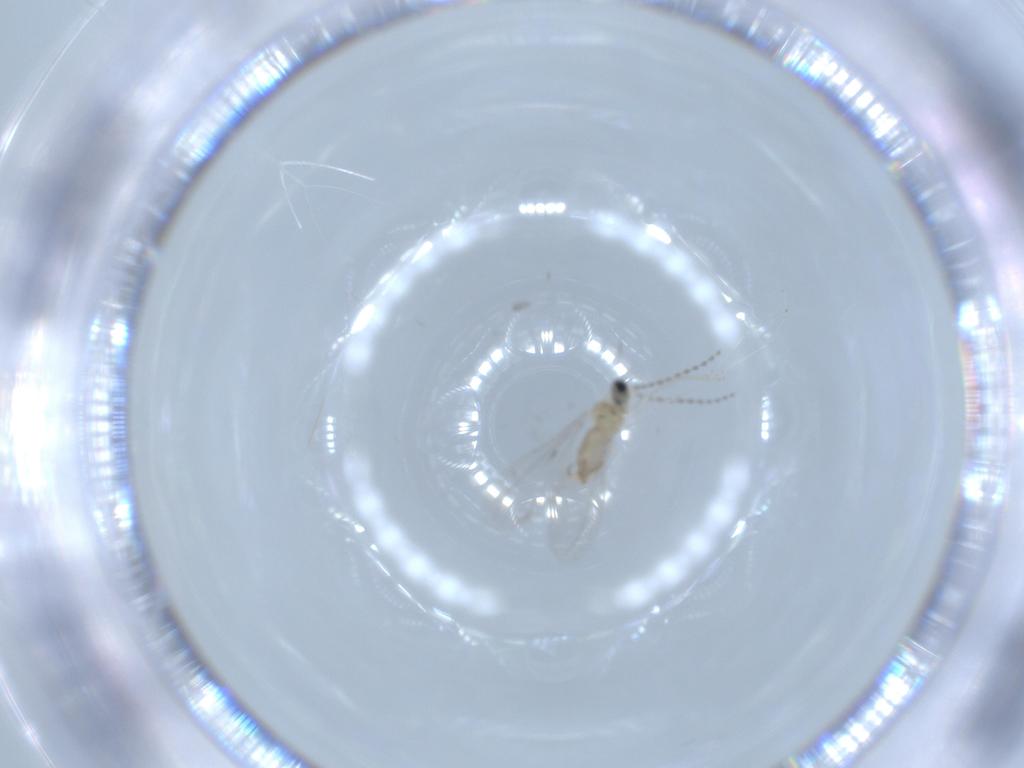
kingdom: Animalia
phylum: Arthropoda
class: Insecta
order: Diptera
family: Cecidomyiidae
